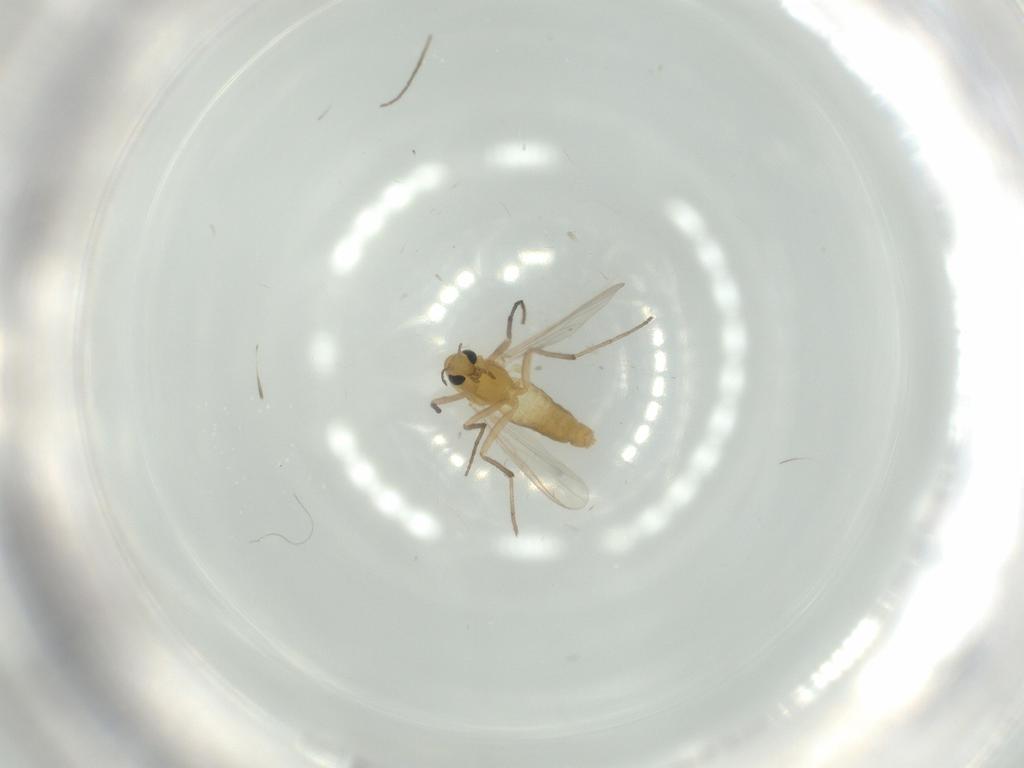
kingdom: Animalia
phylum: Arthropoda
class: Insecta
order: Diptera
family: Chironomidae
